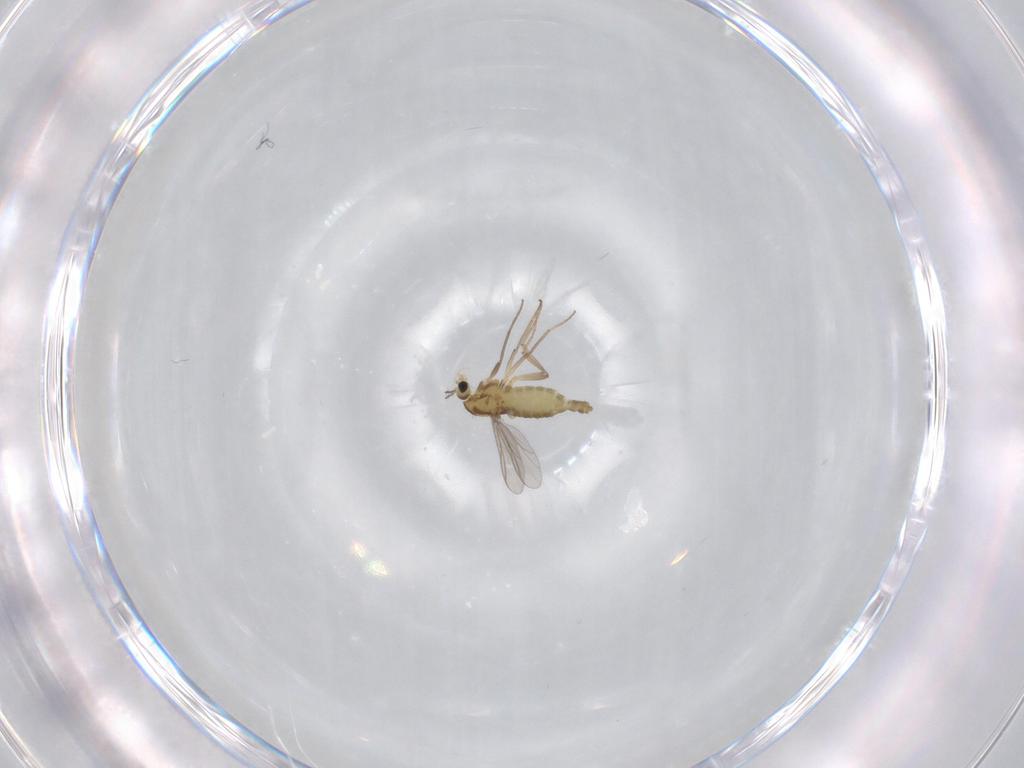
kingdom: Animalia
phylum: Arthropoda
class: Insecta
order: Diptera
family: Chironomidae
